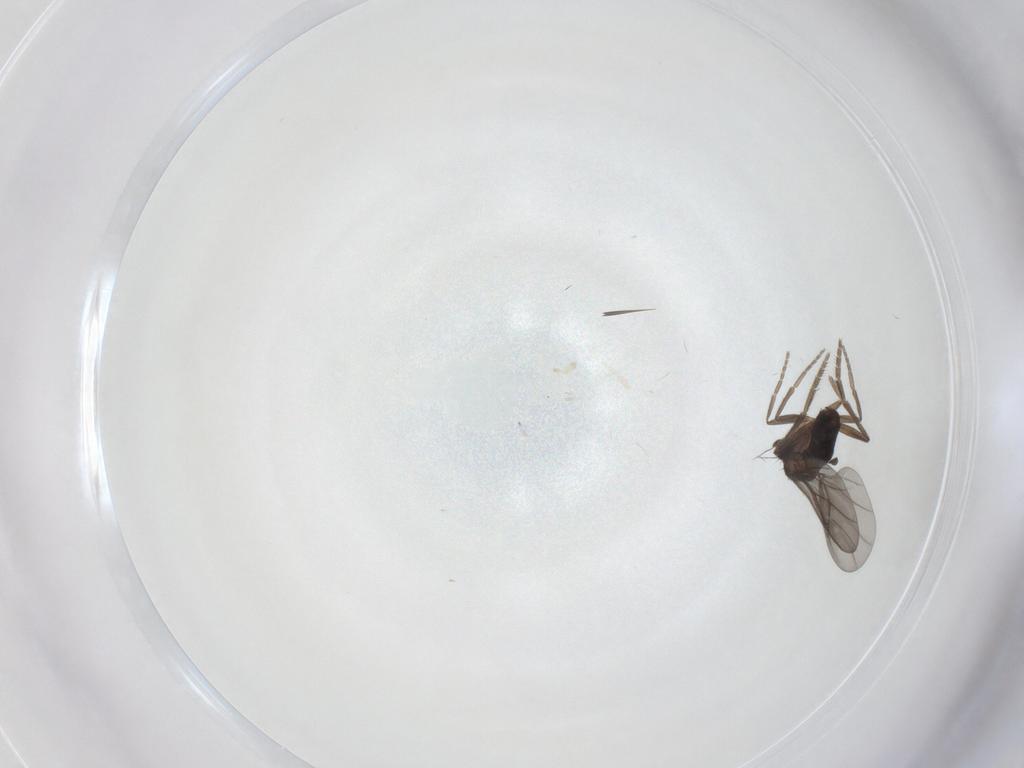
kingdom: Animalia
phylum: Arthropoda
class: Insecta
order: Diptera
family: Cecidomyiidae
